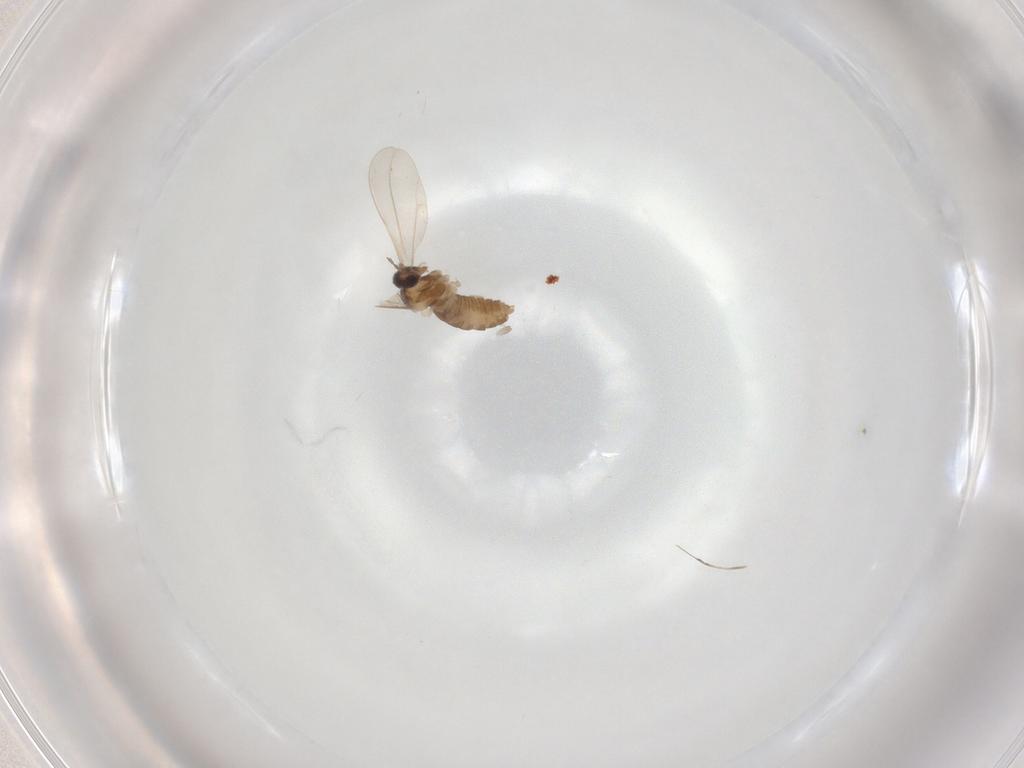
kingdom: Animalia
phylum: Arthropoda
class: Insecta
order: Diptera
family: Cecidomyiidae
